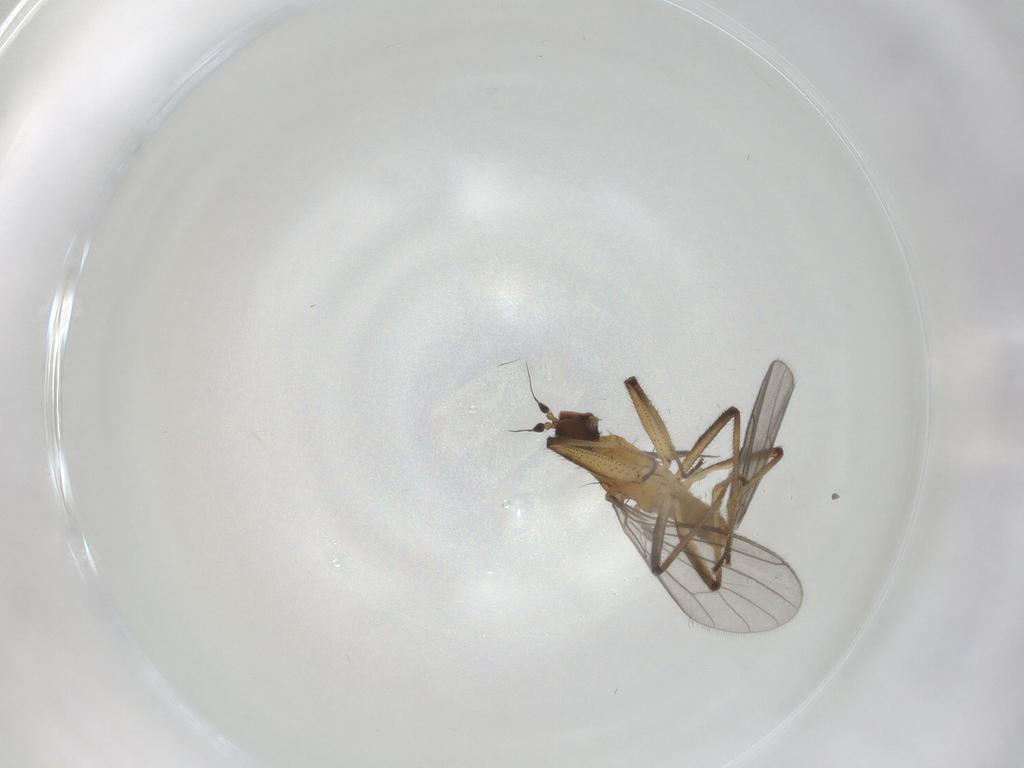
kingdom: Animalia
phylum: Arthropoda
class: Insecta
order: Diptera
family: Empididae
